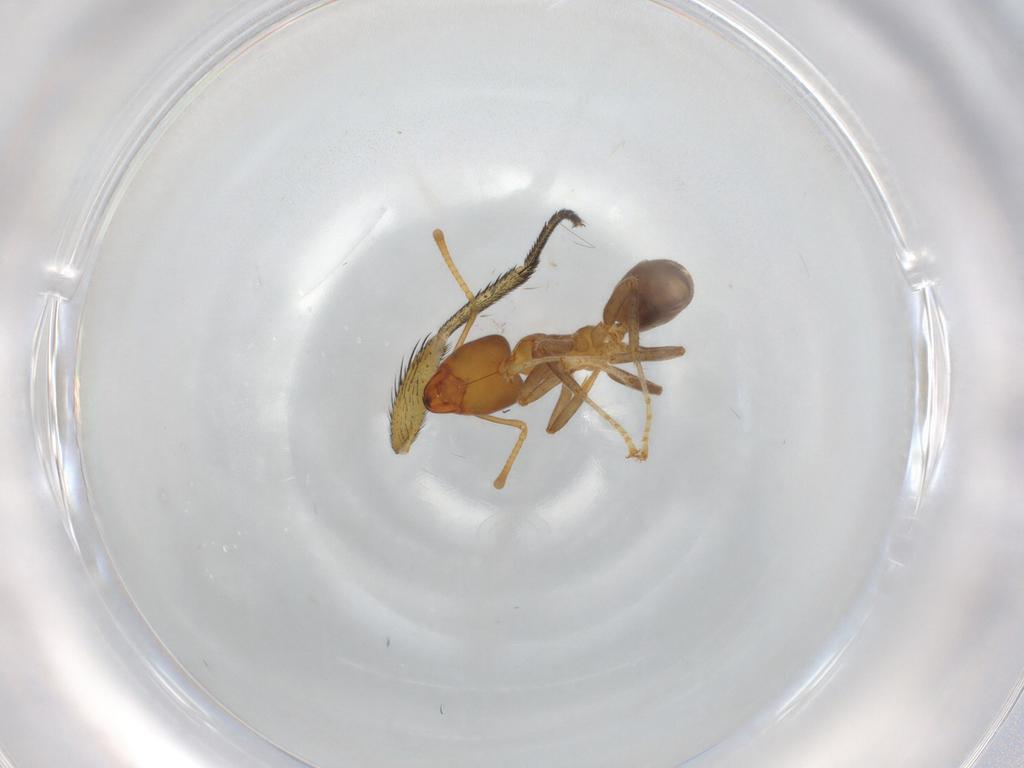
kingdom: Animalia
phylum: Arthropoda
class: Insecta
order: Hymenoptera
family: Formicidae
